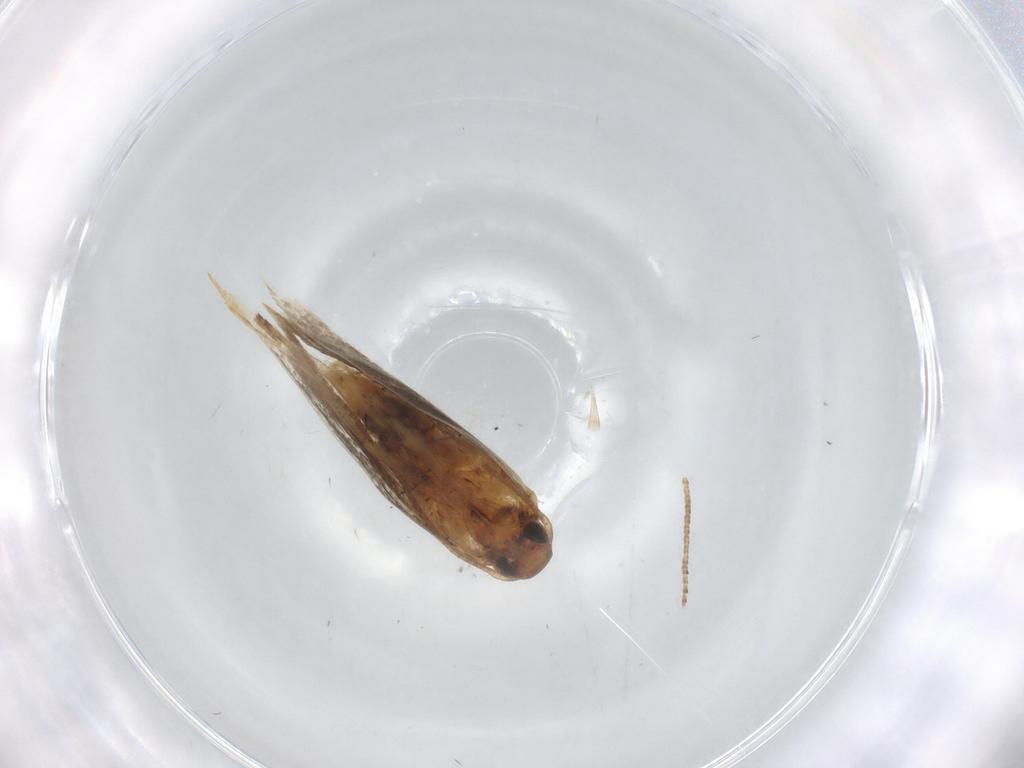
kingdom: Animalia
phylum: Arthropoda
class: Insecta
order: Lepidoptera
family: Gelechiidae
